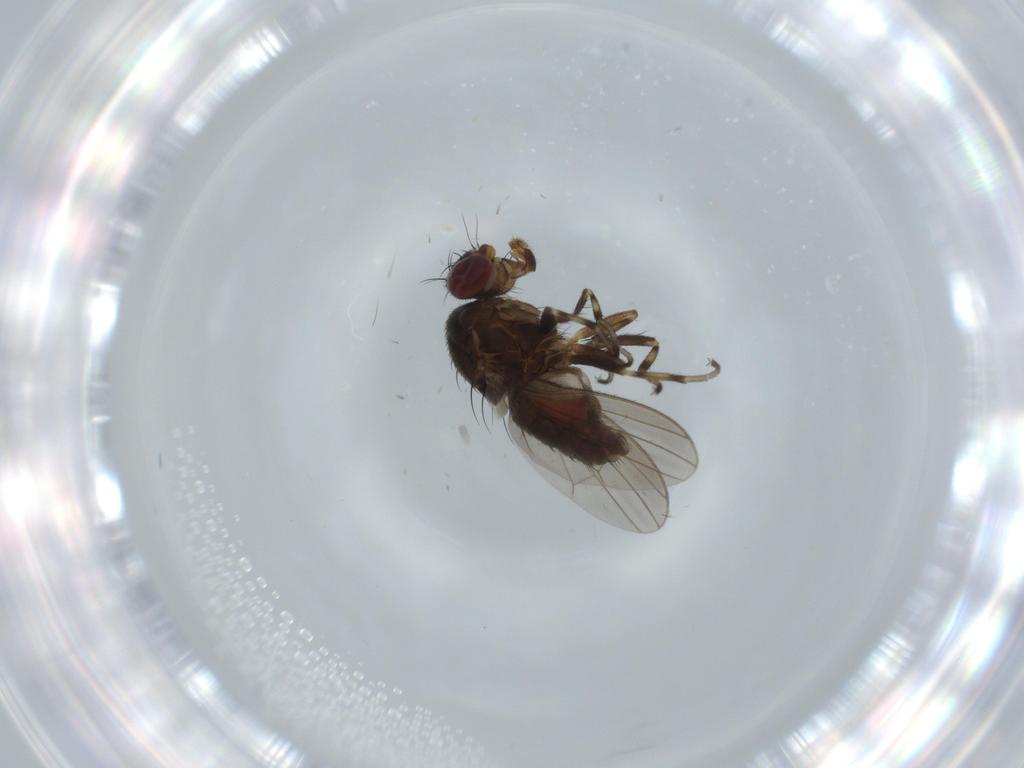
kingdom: Animalia
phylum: Arthropoda
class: Insecta
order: Diptera
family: Heleomyzidae
